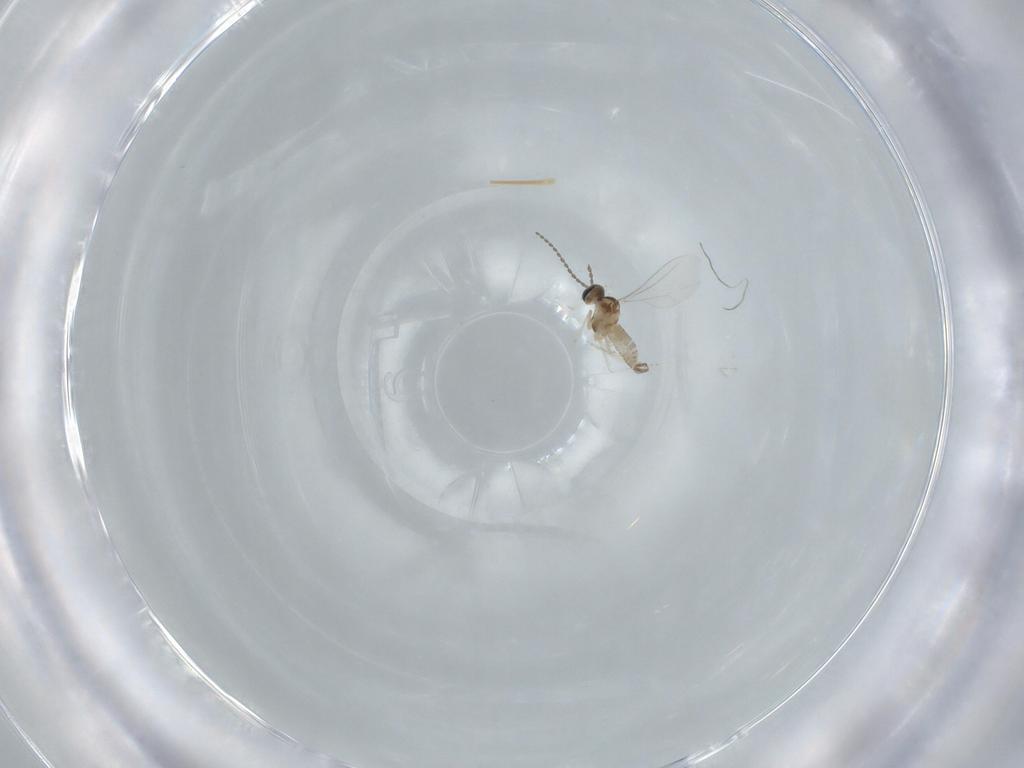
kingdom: Animalia
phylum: Arthropoda
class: Insecta
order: Diptera
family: Cecidomyiidae
